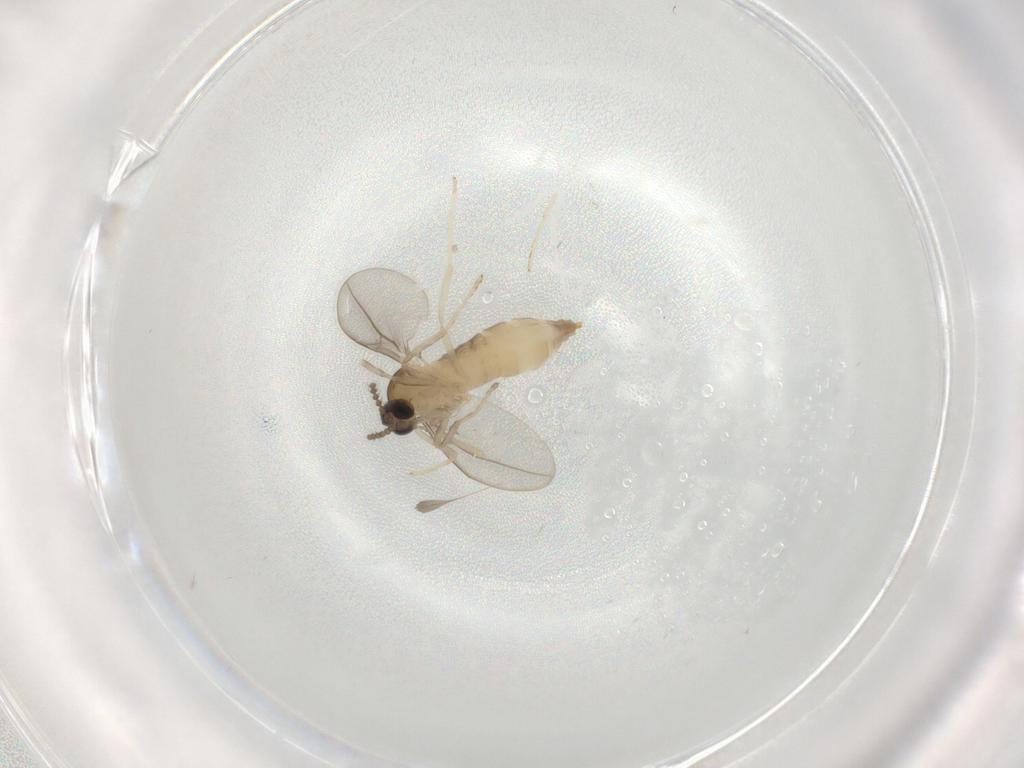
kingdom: Animalia
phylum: Arthropoda
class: Insecta
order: Diptera
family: Cecidomyiidae
